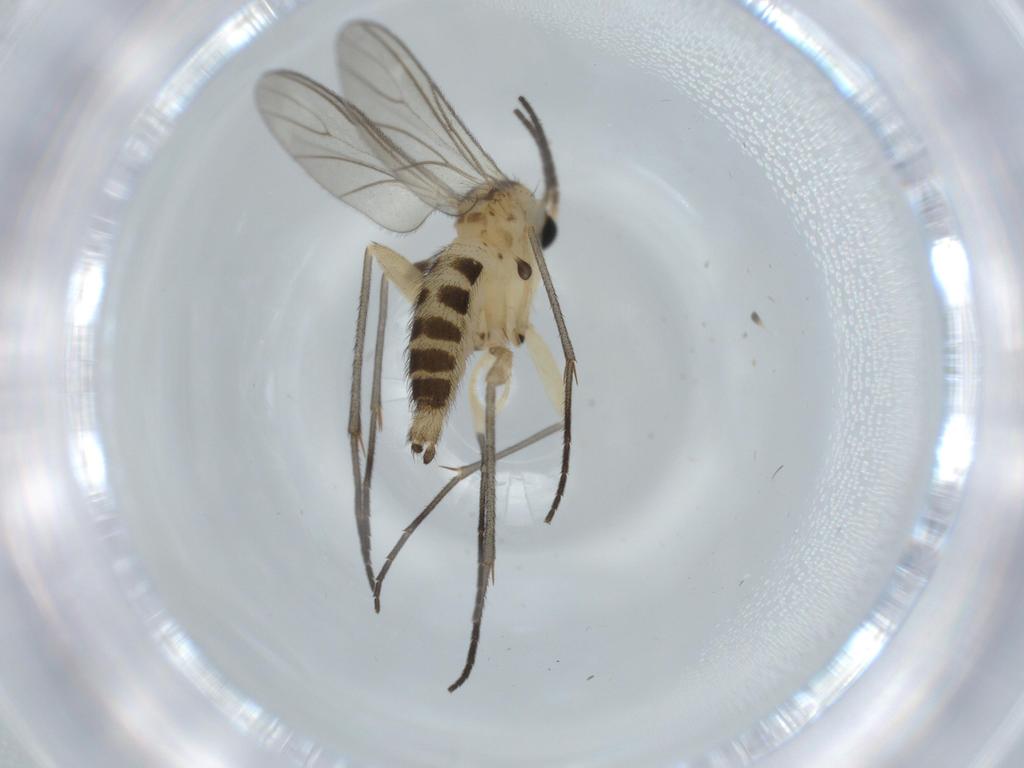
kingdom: Animalia
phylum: Arthropoda
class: Insecta
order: Diptera
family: Sciaridae
